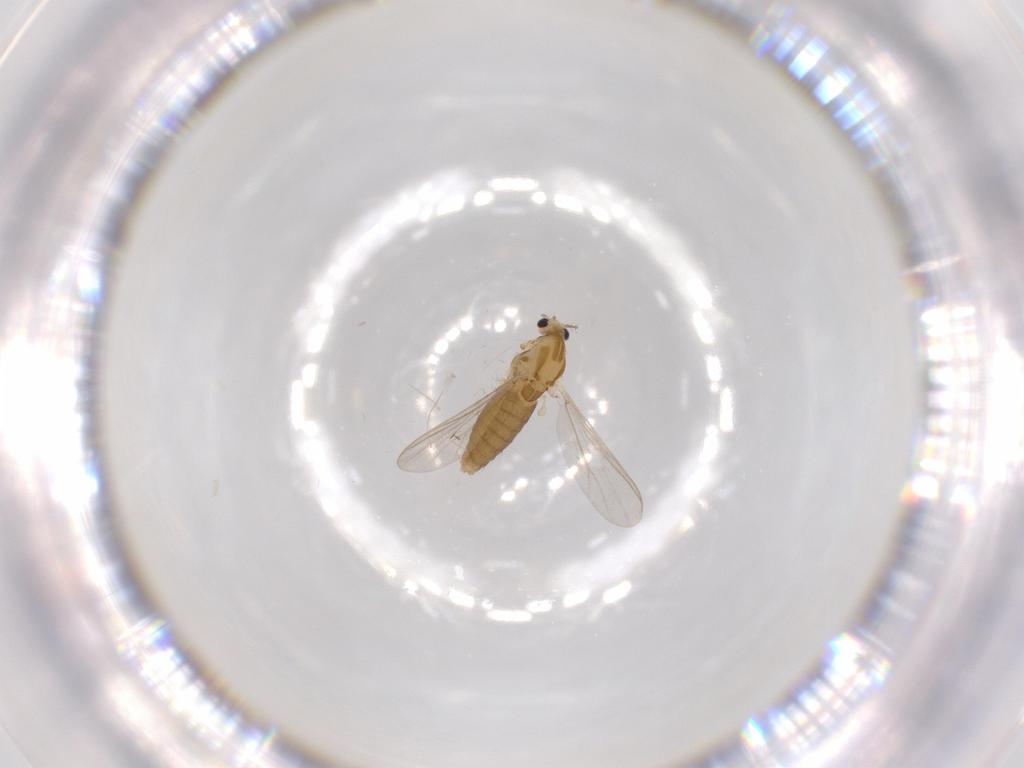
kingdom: Animalia
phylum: Arthropoda
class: Insecta
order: Diptera
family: Chironomidae
